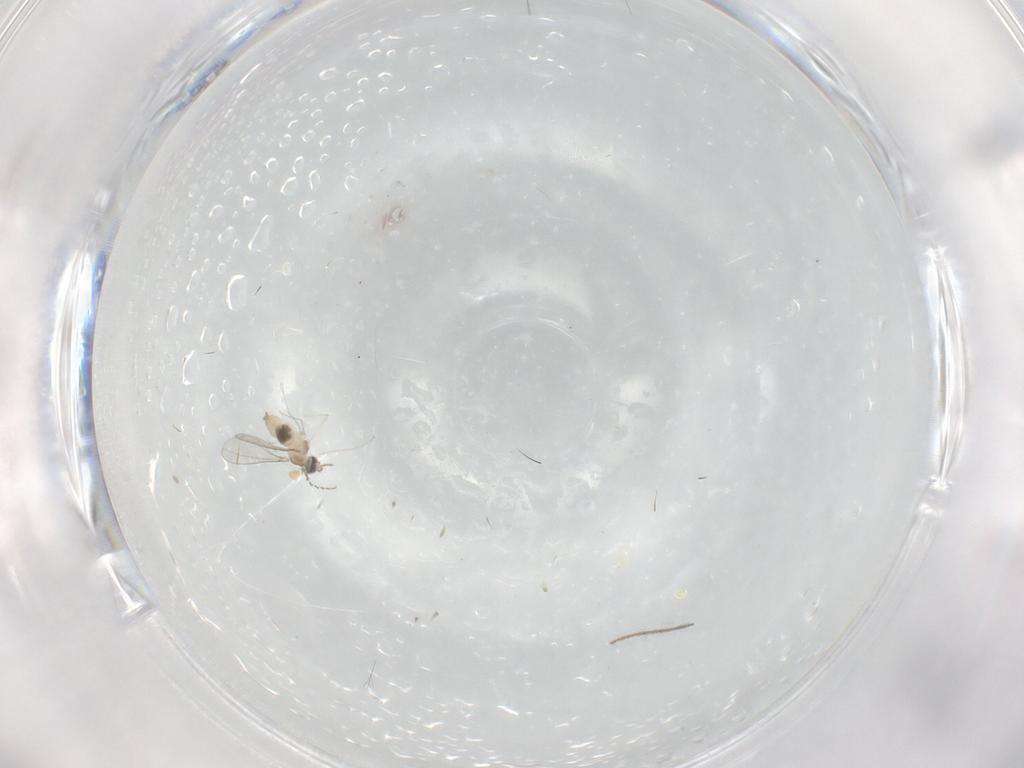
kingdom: Animalia
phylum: Arthropoda
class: Insecta
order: Diptera
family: Cecidomyiidae
